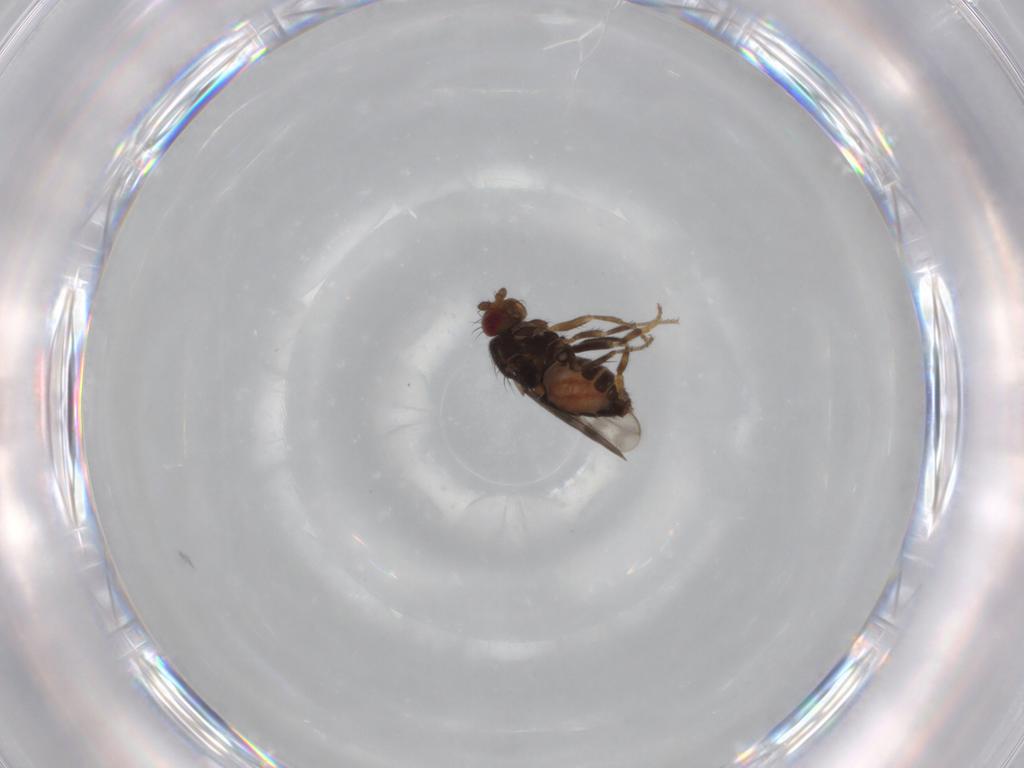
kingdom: Animalia
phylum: Arthropoda
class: Insecta
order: Diptera
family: Sphaeroceridae
